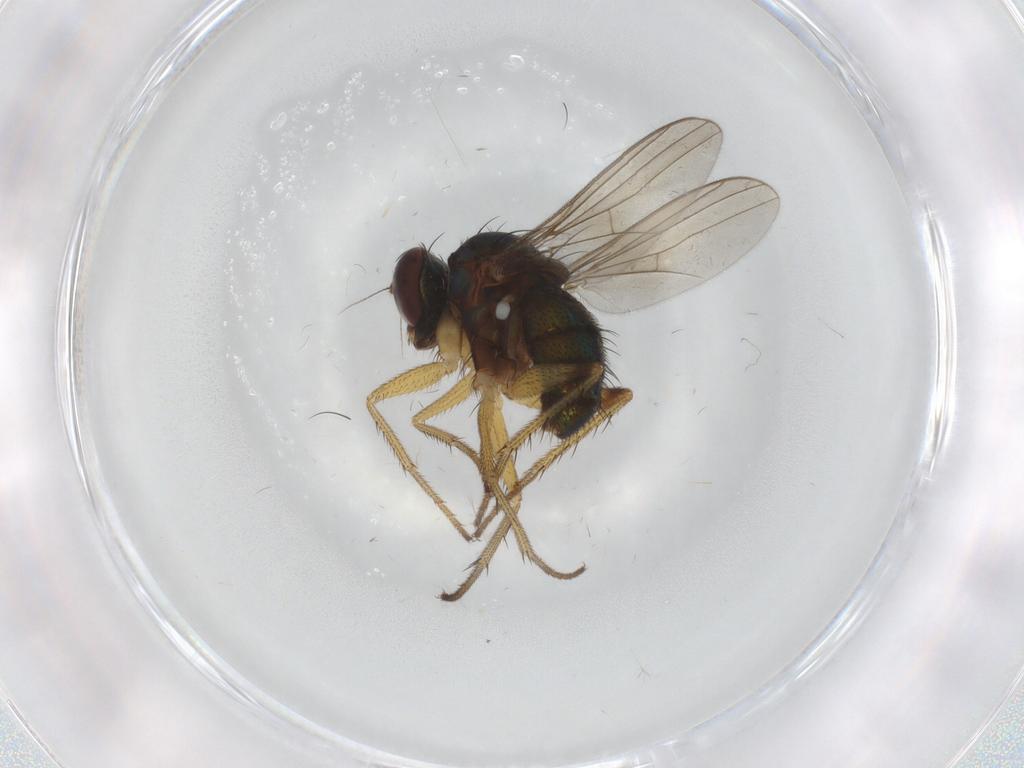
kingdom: Animalia
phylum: Arthropoda
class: Insecta
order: Diptera
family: Dolichopodidae
